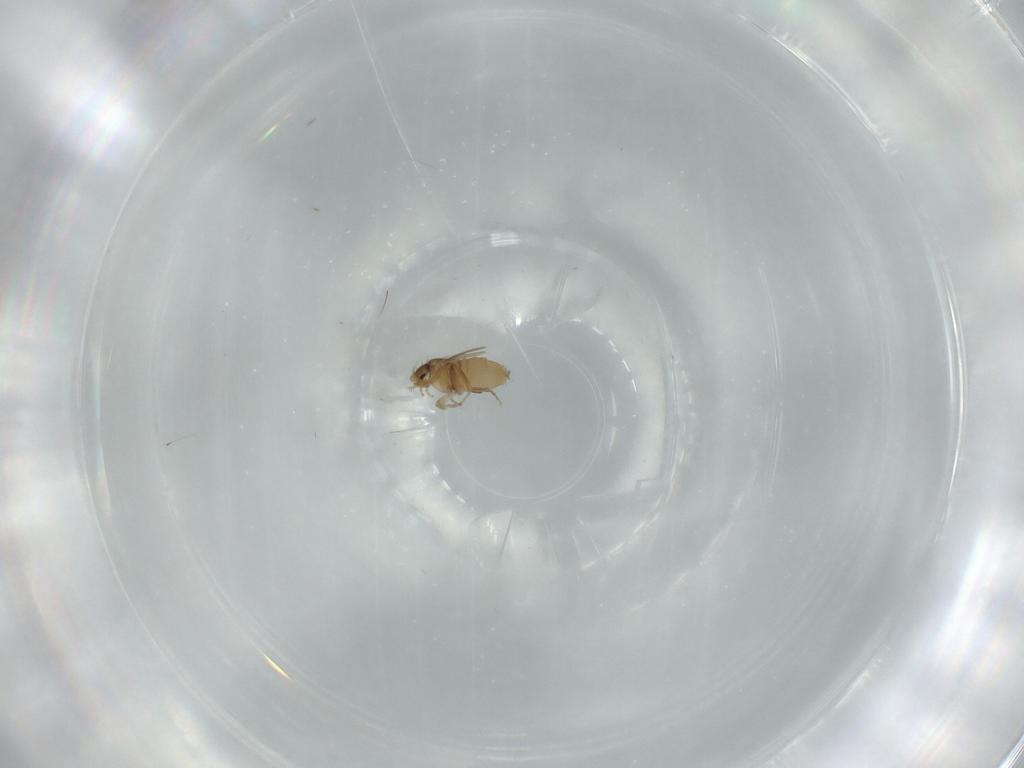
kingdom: Animalia
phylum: Arthropoda
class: Insecta
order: Diptera
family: Phoridae
